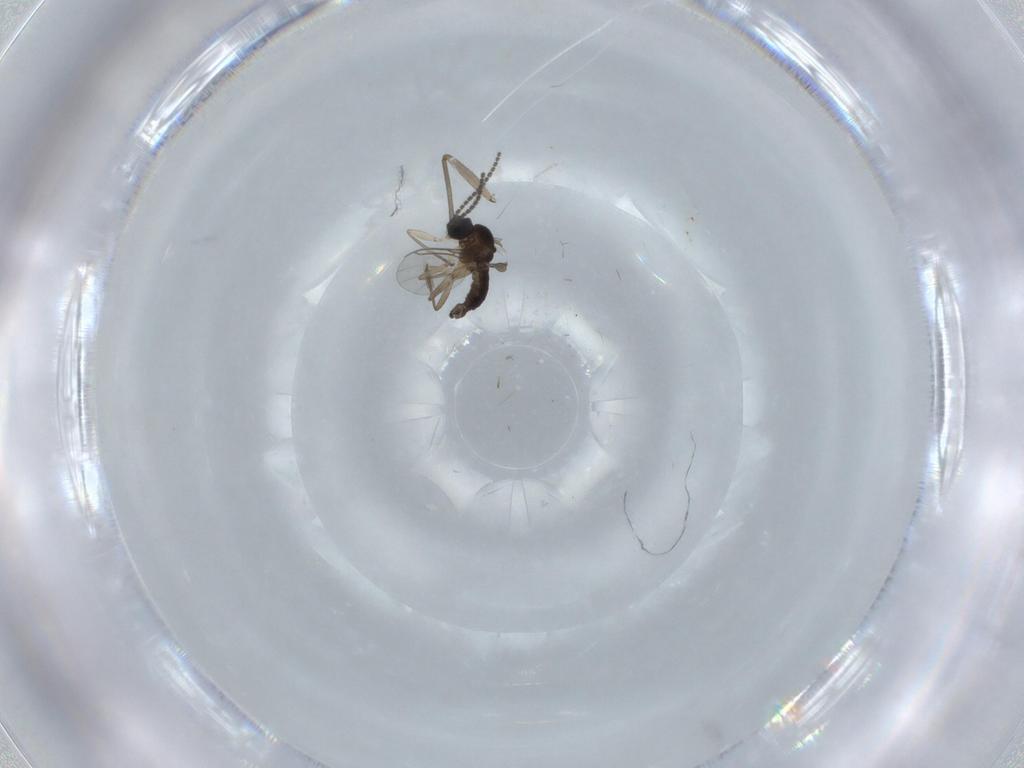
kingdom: Animalia
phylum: Arthropoda
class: Insecta
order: Diptera
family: Sciaridae
